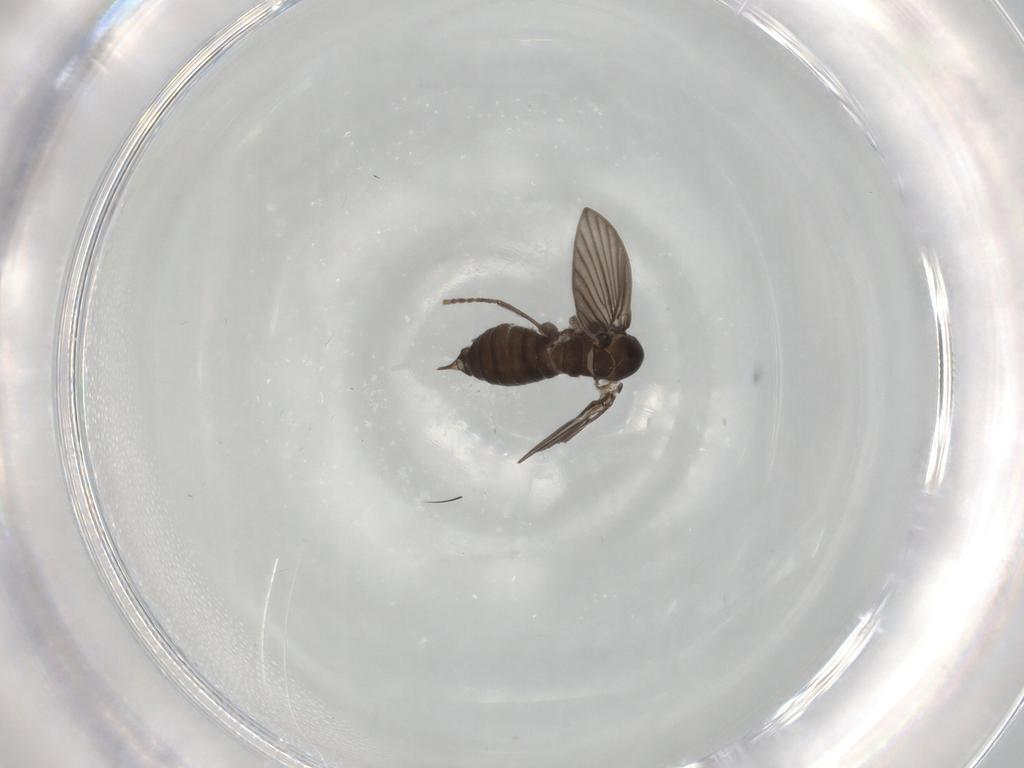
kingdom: Animalia
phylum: Arthropoda
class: Insecta
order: Diptera
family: Psychodidae
